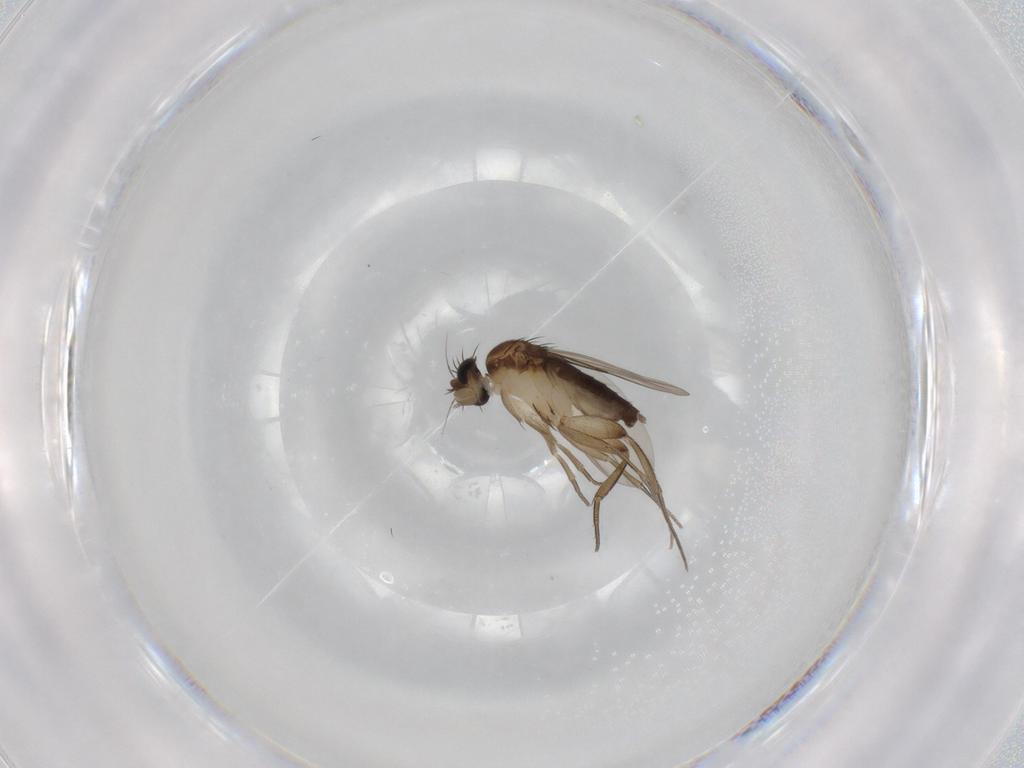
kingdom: Animalia
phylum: Arthropoda
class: Insecta
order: Diptera
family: Phoridae
